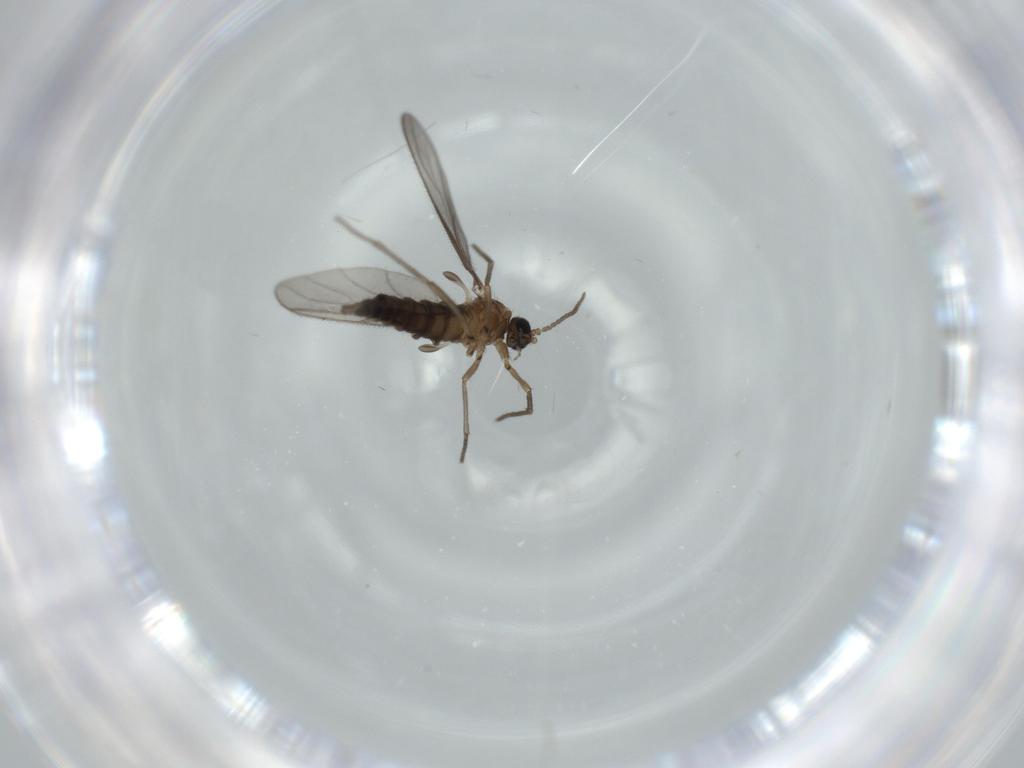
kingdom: Animalia
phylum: Arthropoda
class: Insecta
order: Diptera
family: Sciaridae
